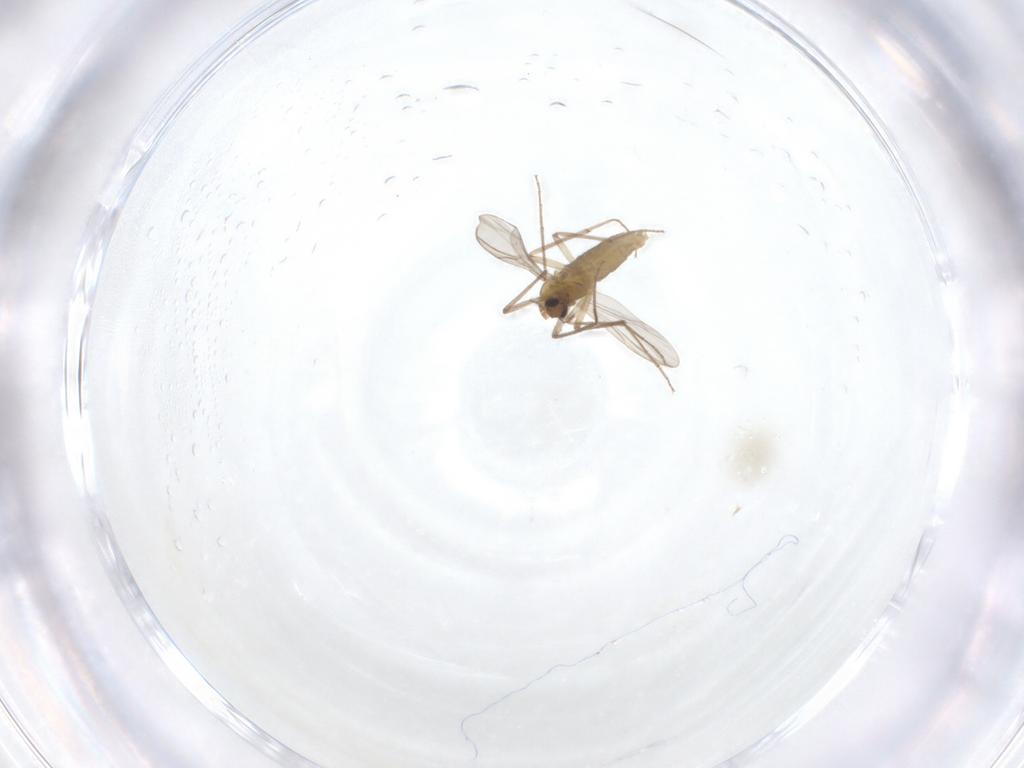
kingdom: Animalia
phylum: Arthropoda
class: Insecta
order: Diptera
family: Chironomidae
